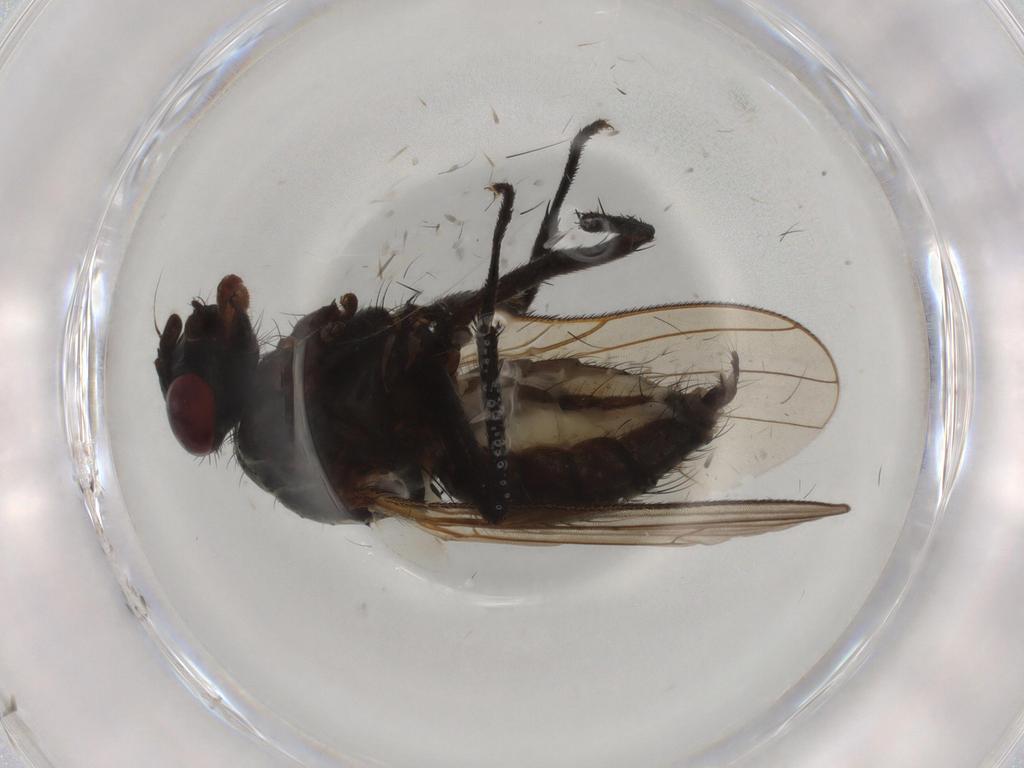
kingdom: Animalia
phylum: Arthropoda
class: Insecta
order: Diptera
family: Anthomyiidae
